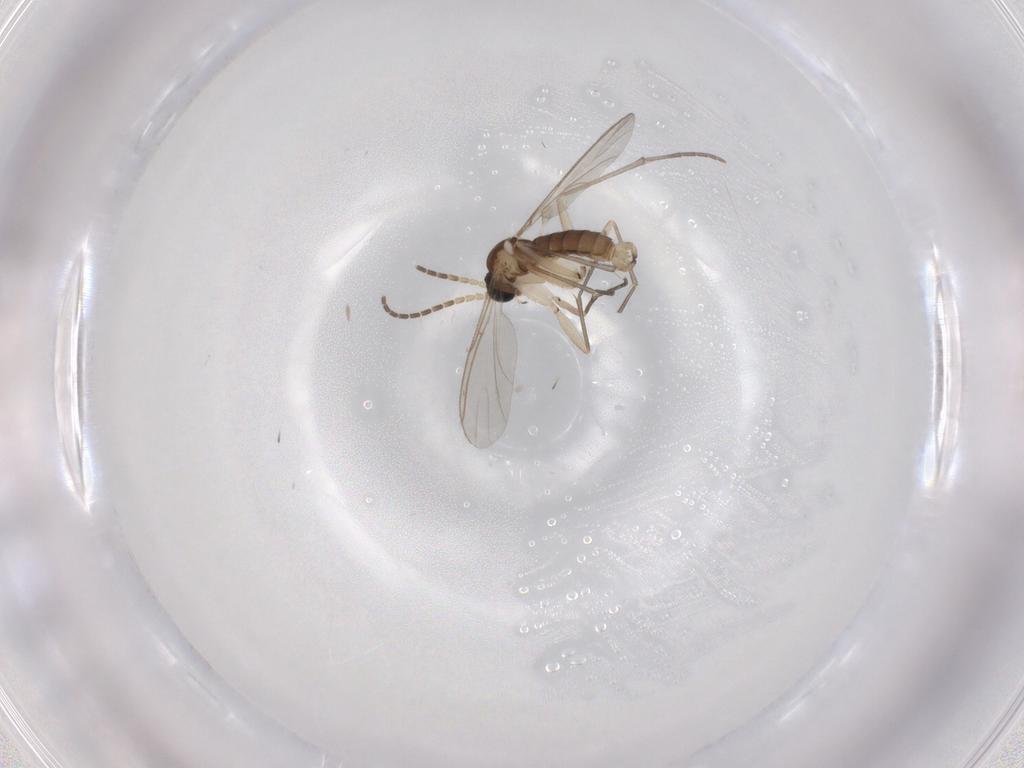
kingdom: Animalia
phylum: Arthropoda
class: Insecta
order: Diptera
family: Sciaridae
